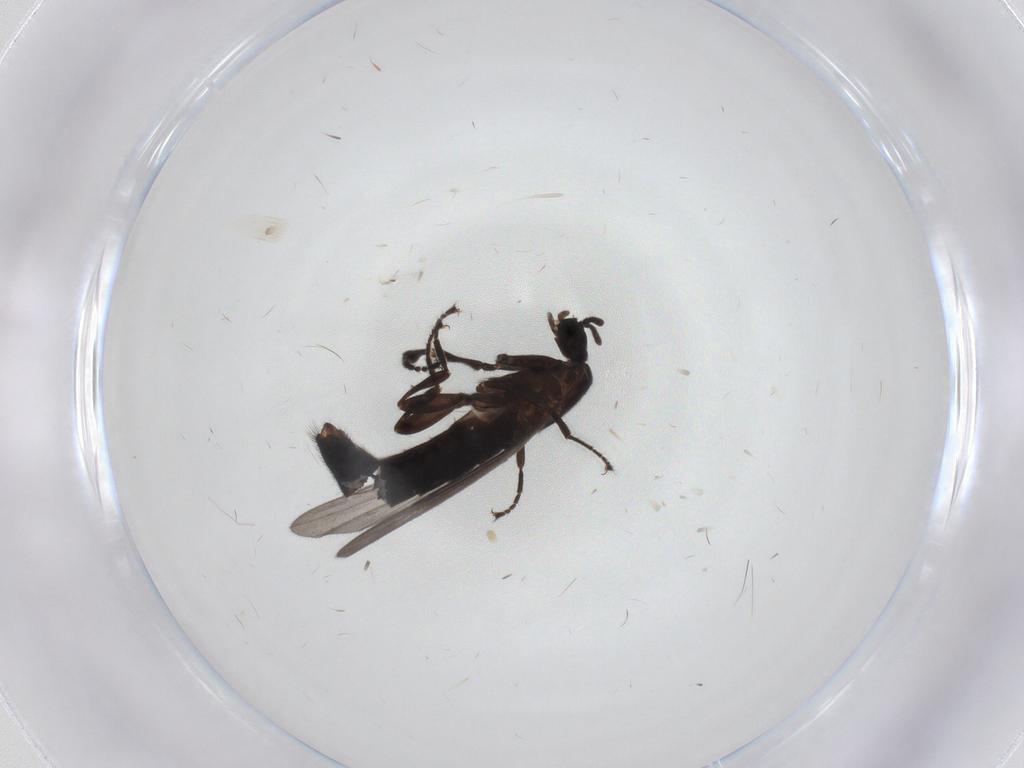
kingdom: Animalia
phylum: Arthropoda
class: Insecta
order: Diptera
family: Scatopsidae
